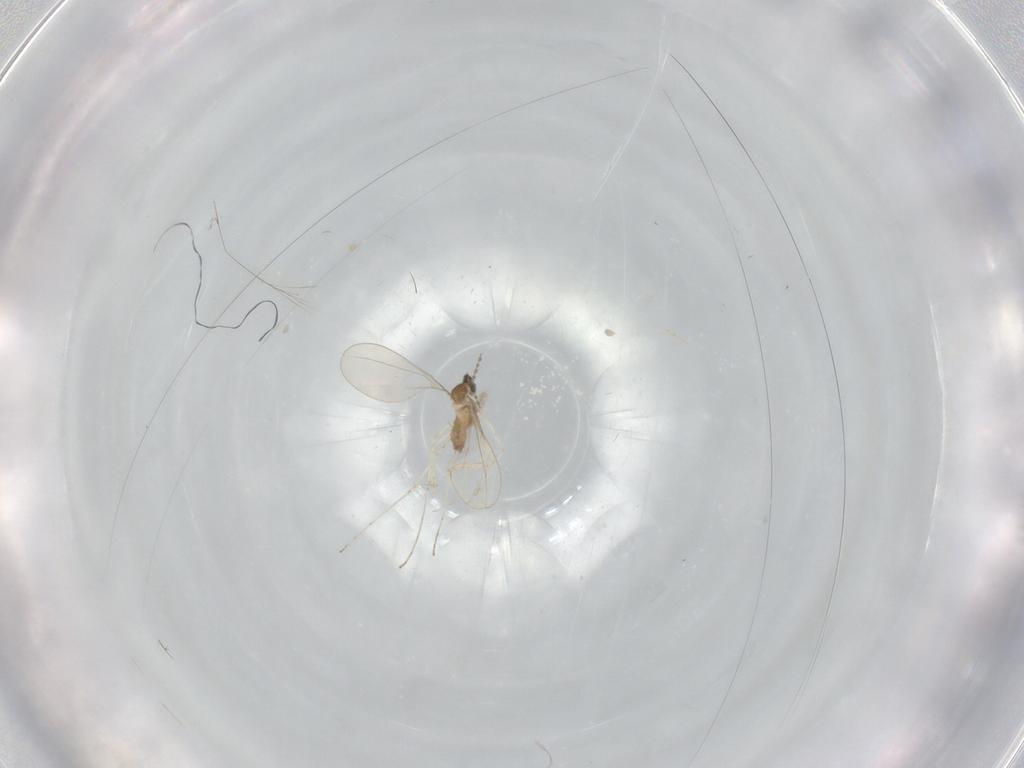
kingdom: Animalia
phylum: Arthropoda
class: Insecta
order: Diptera
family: Cecidomyiidae
